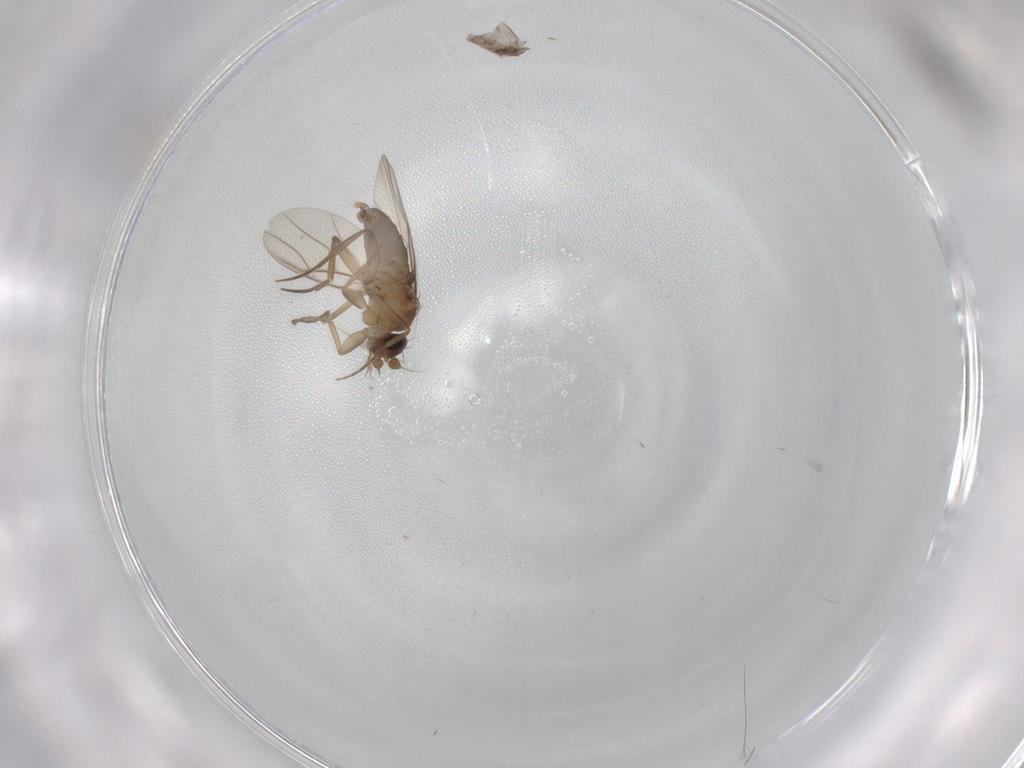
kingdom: Animalia
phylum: Arthropoda
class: Insecta
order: Diptera
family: Phoridae
